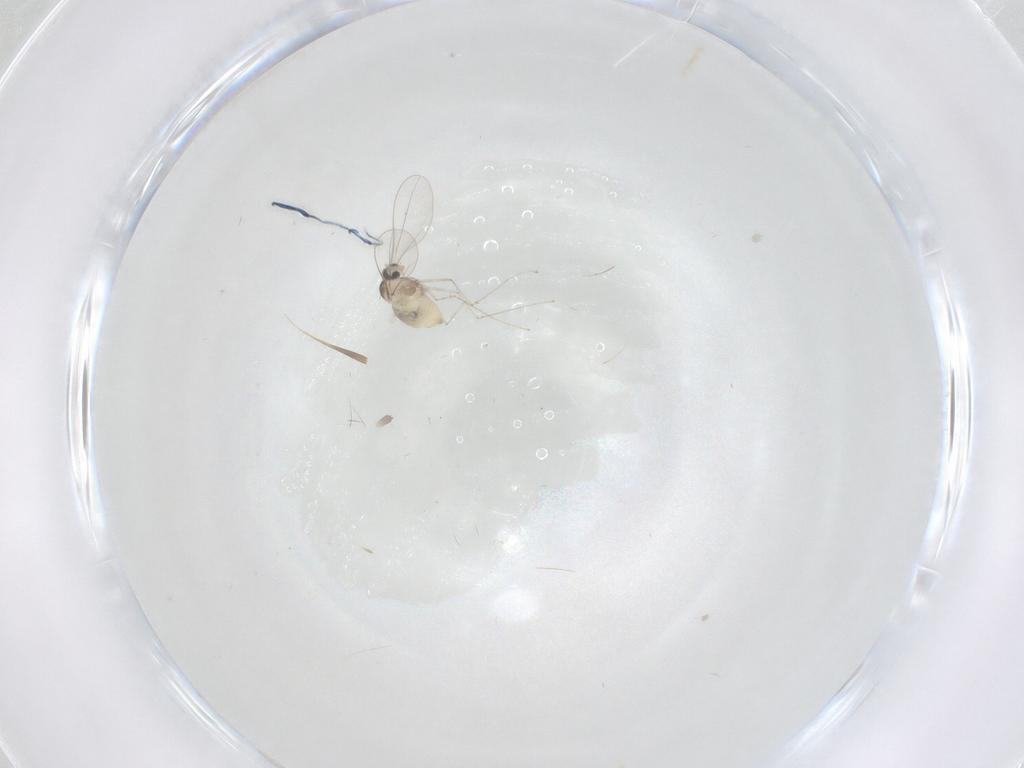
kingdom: Animalia
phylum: Arthropoda
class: Insecta
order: Diptera
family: Cecidomyiidae
